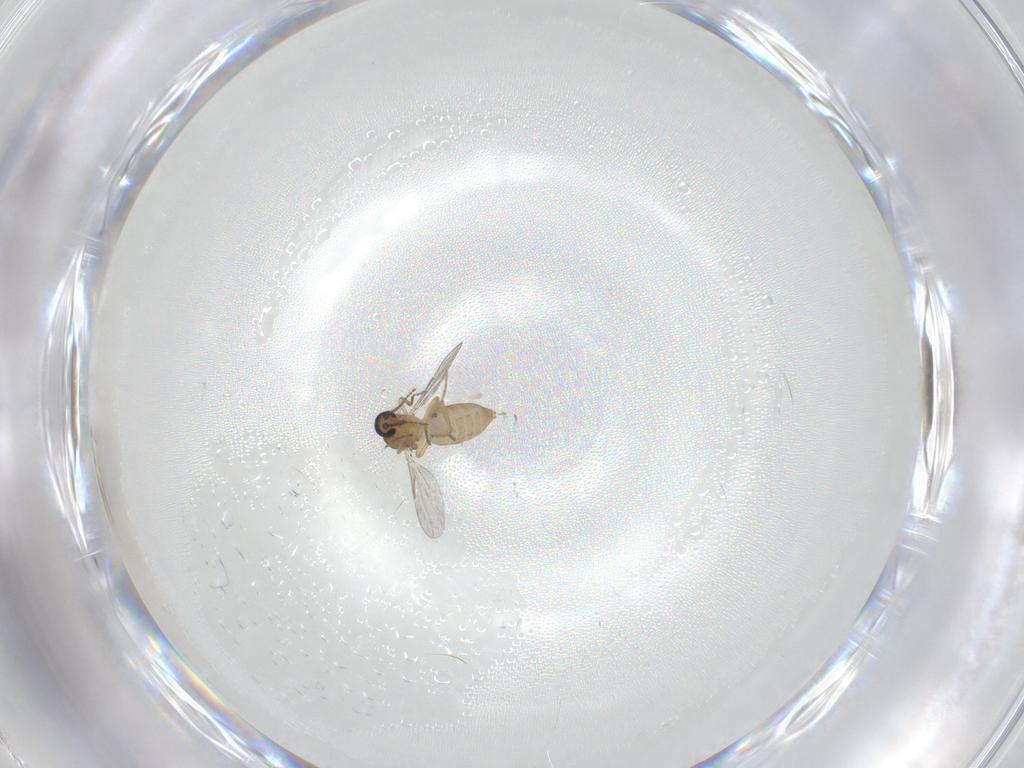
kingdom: Animalia
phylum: Arthropoda
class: Insecta
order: Diptera
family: Ceratopogonidae
